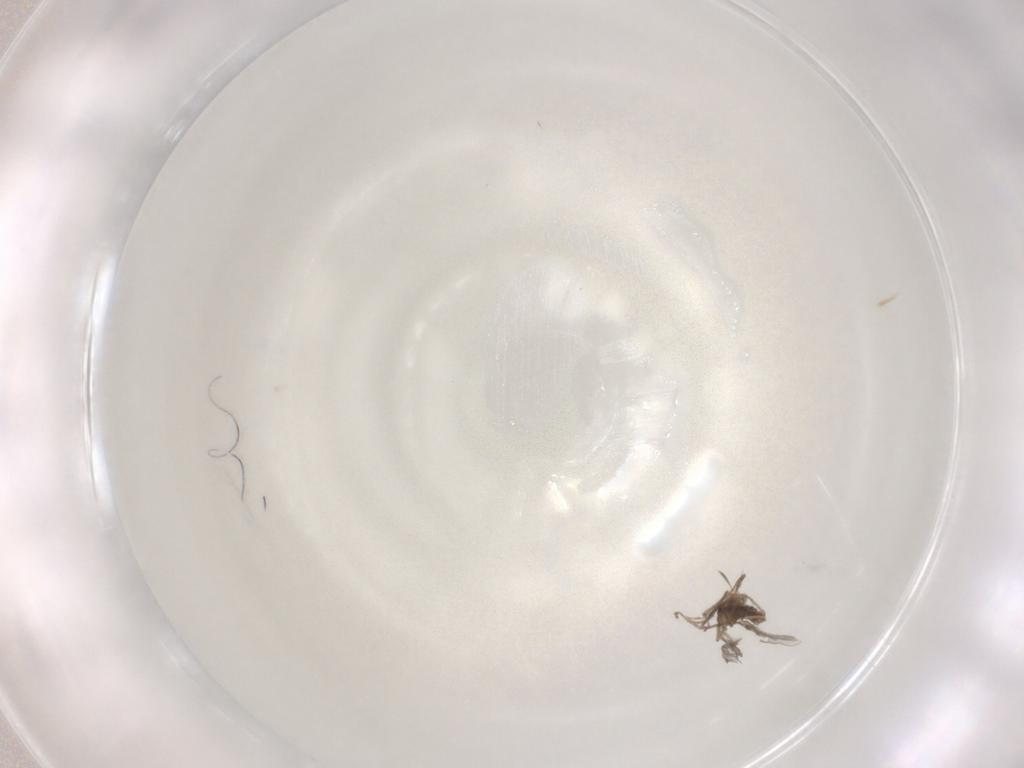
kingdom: Animalia
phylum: Arthropoda
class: Insecta
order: Diptera
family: Cecidomyiidae
